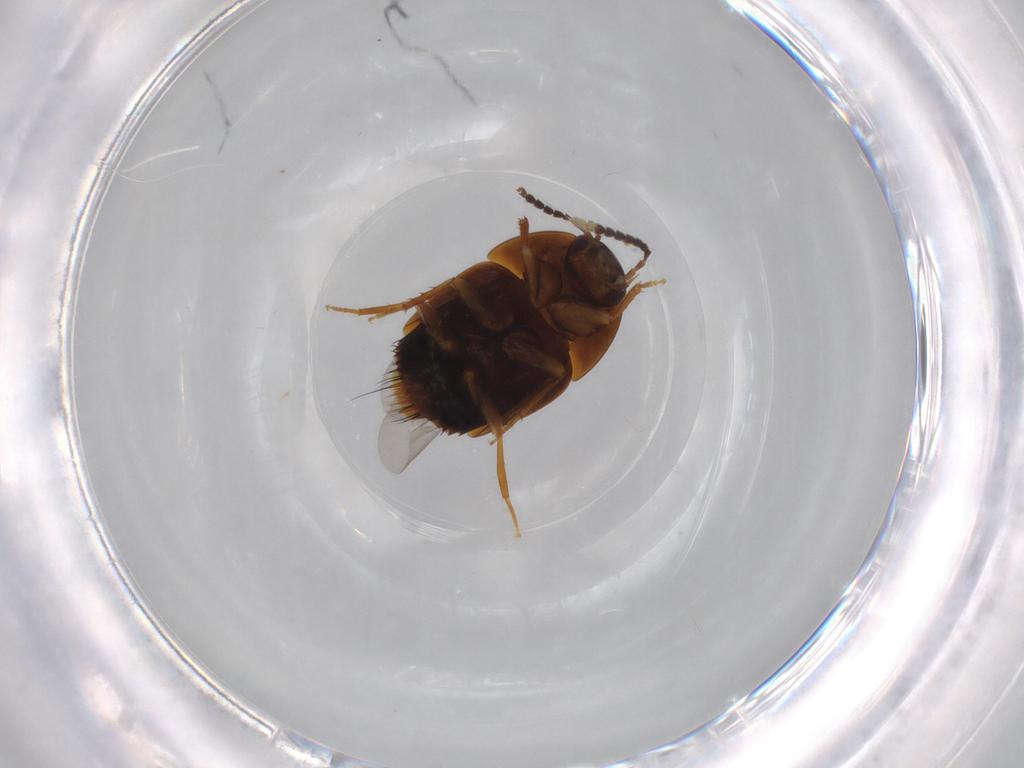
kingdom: Animalia
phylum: Arthropoda
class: Insecta
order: Coleoptera
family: Staphylinidae
